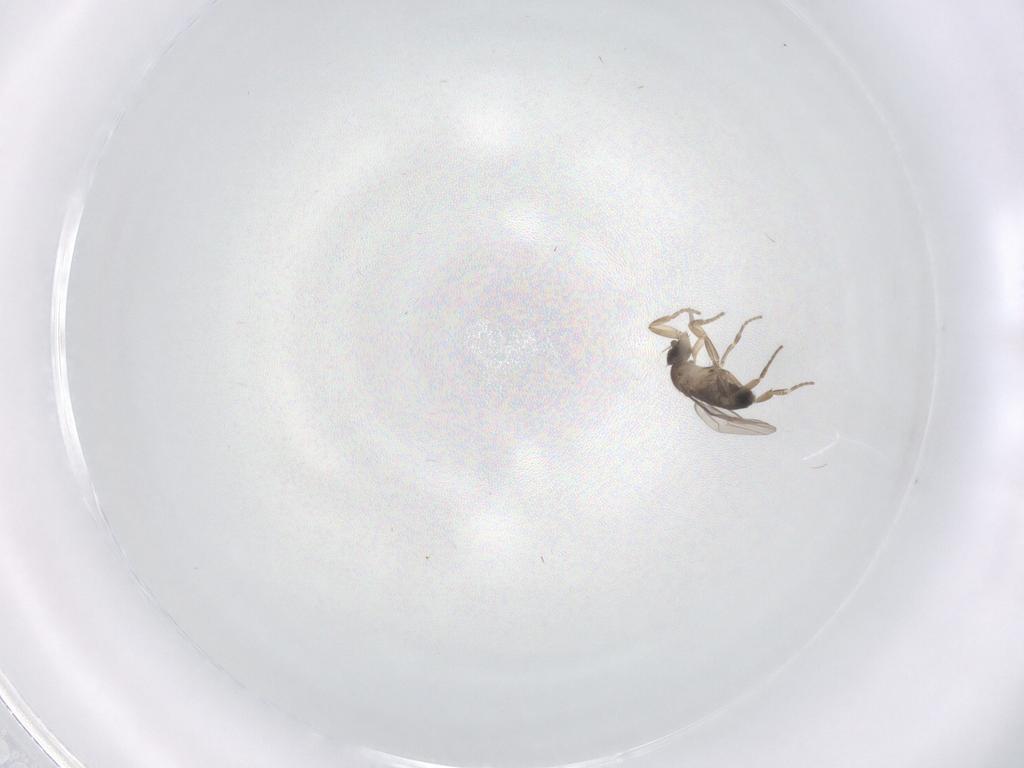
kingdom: Animalia
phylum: Arthropoda
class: Insecta
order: Diptera
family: Phoridae
